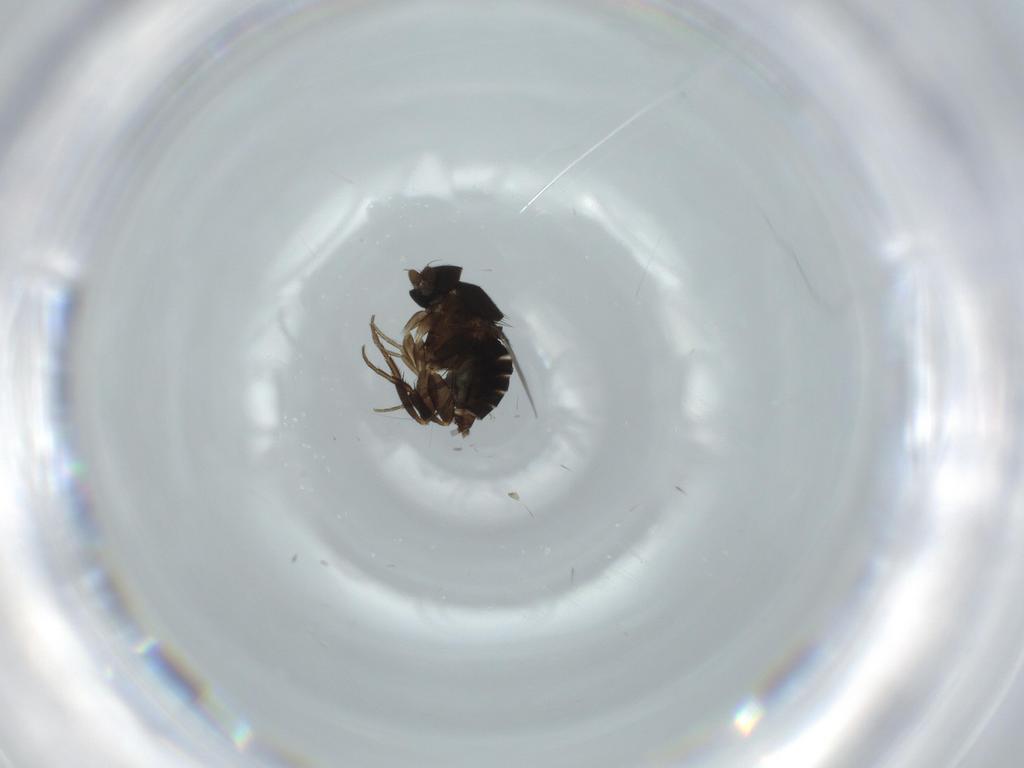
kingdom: Animalia
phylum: Arthropoda
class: Insecta
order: Diptera
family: Phoridae
